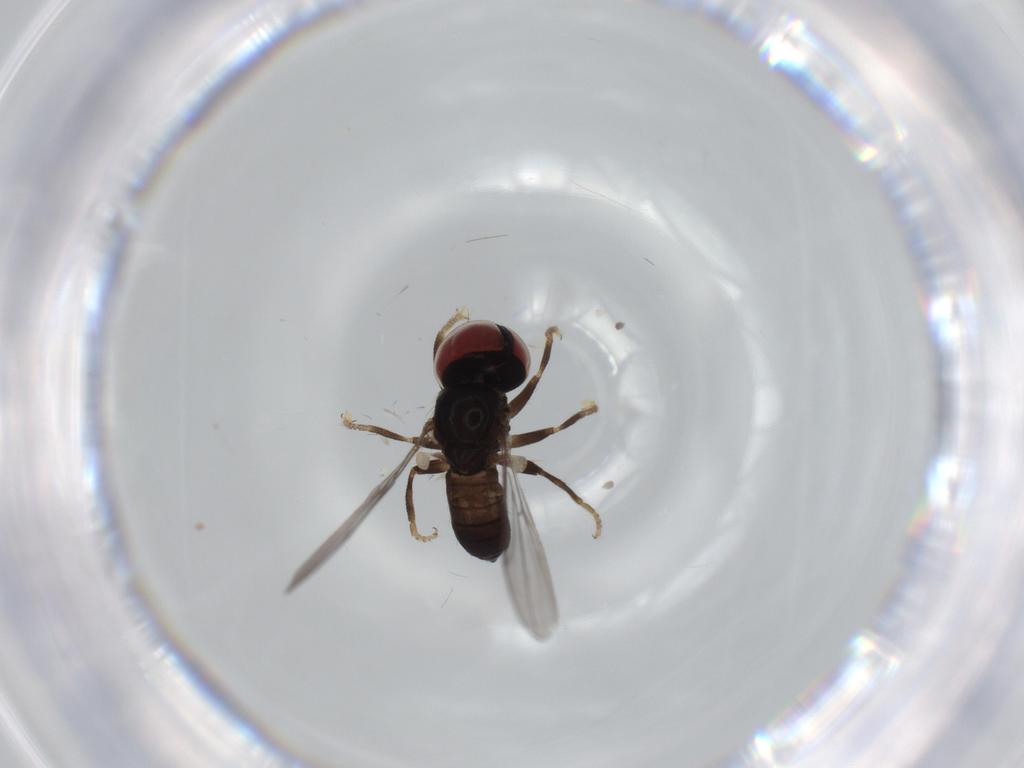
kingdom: Animalia
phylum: Arthropoda
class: Insecta
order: Diptera
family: Pipunculidae
